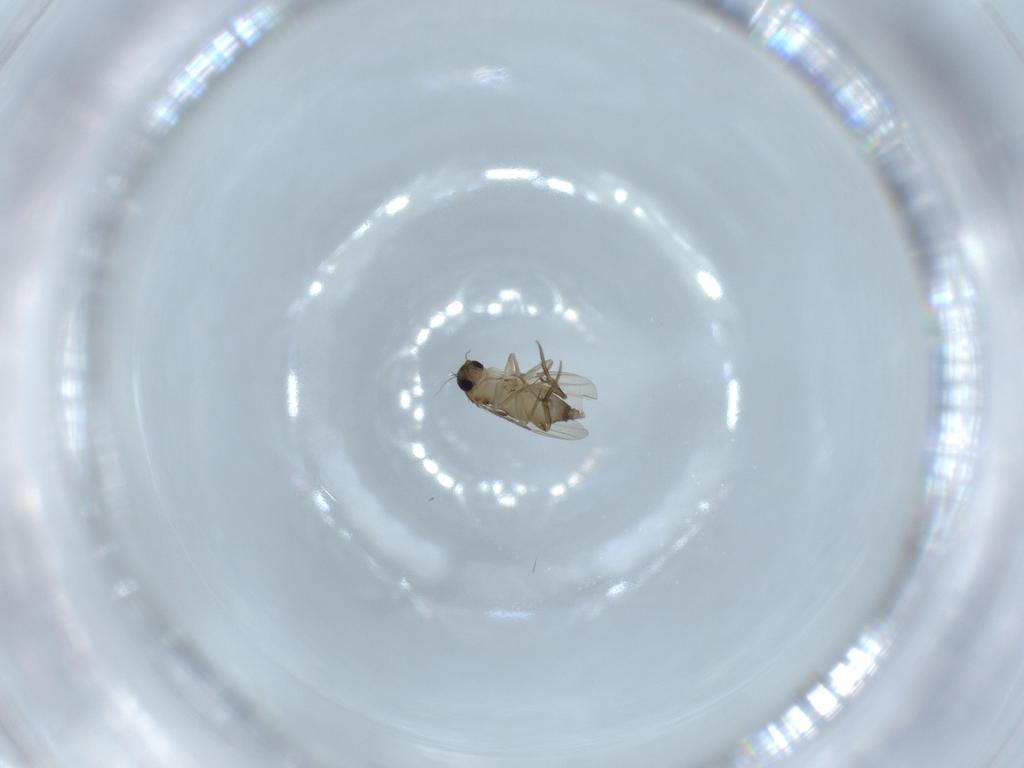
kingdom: Animalia
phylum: Arthropoda
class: Insecta
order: Diptera
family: Phoridae
